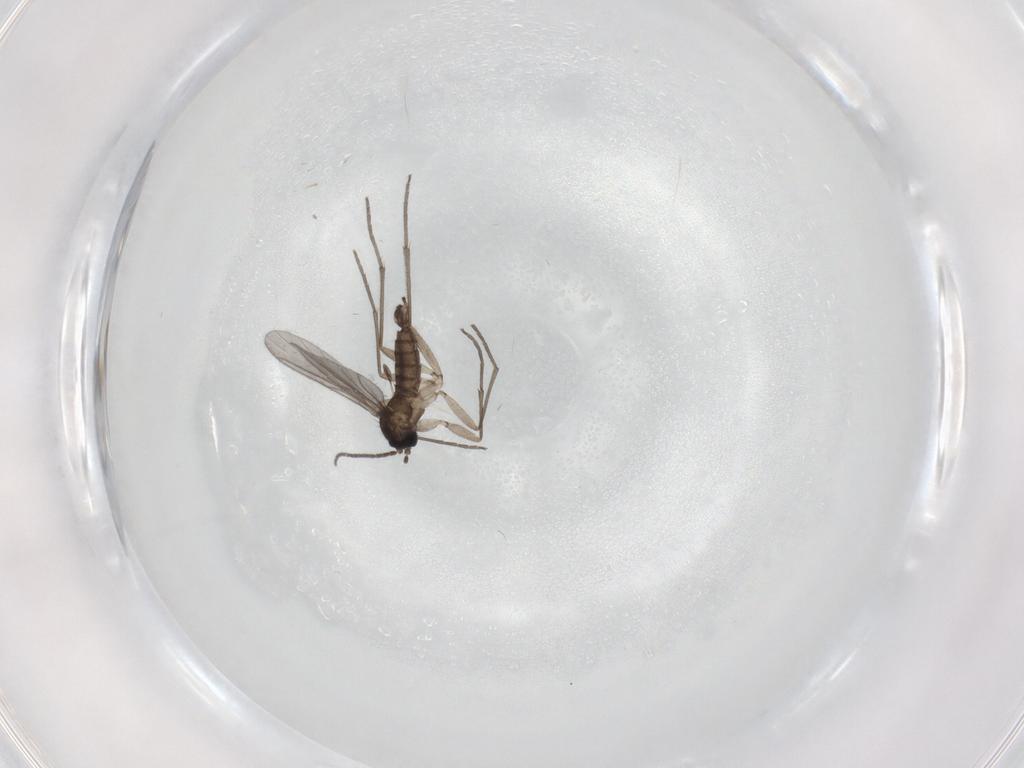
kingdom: Animalia
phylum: Arthropoda
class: Insecta
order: Diptera
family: Sciaridae
